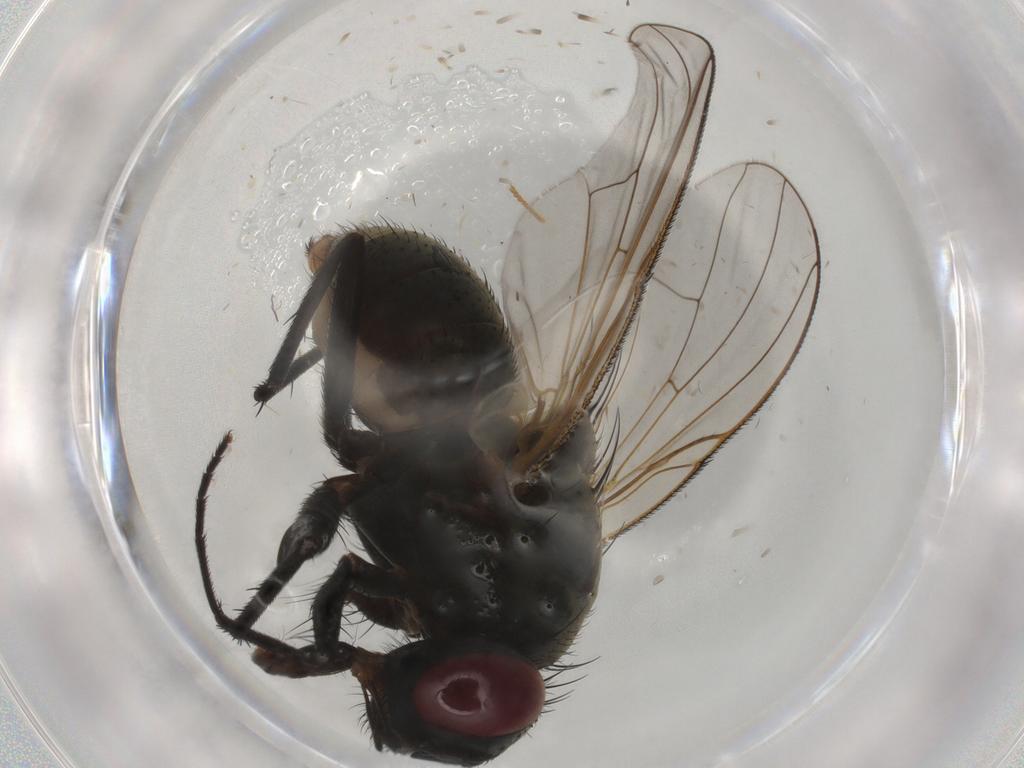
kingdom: Animalia
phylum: Arthropoda
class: Insecta
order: Diptera
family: Muscidae
